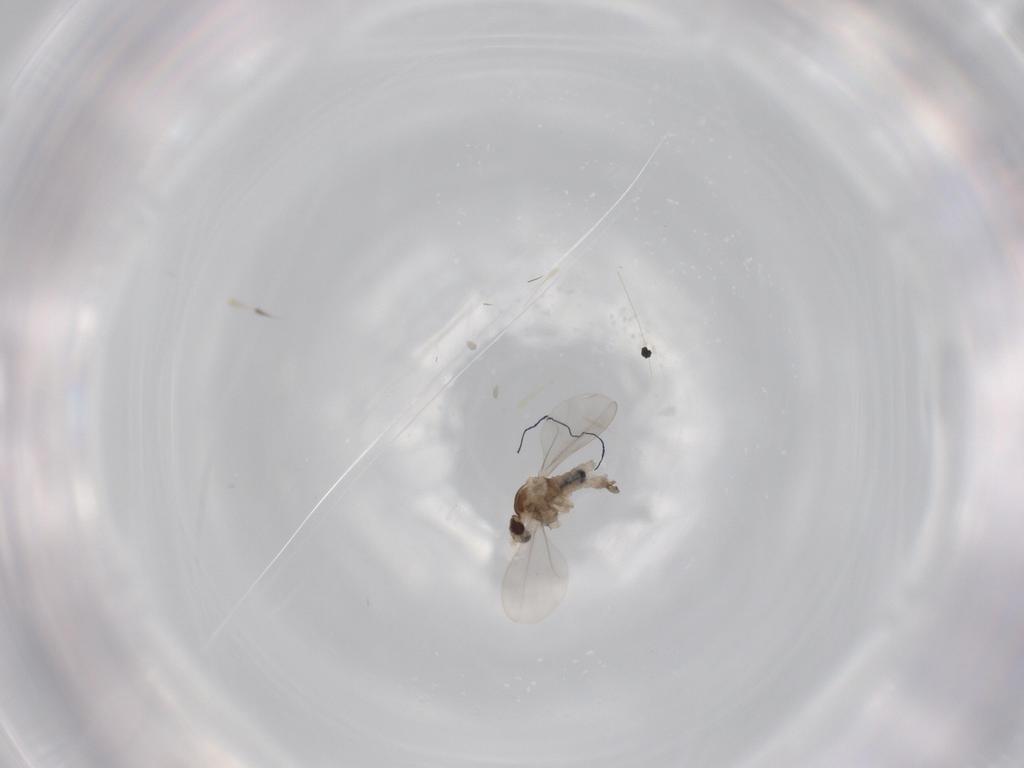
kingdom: Animalia
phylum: Arthropoda
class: Insecta
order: Diptera
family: Cecidomyiidae
